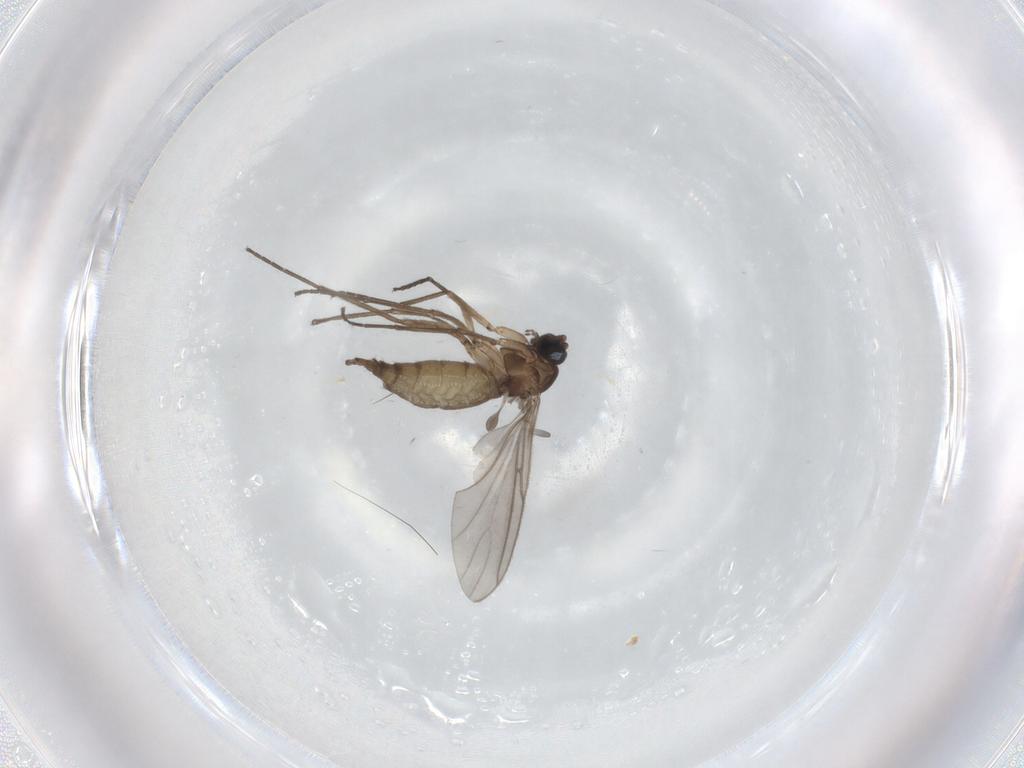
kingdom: Animalia
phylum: Arthropoda
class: Insecta
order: Diptera
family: Sciaridae
